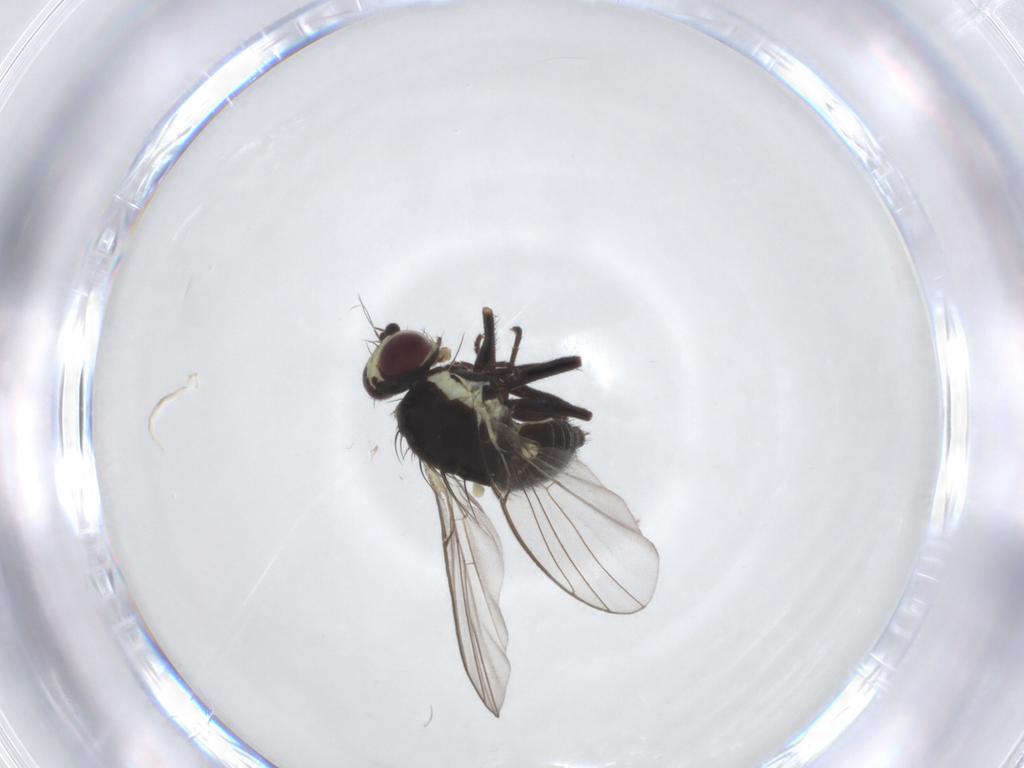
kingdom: Animalia
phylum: Arthropoda
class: Insecta
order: Diptera
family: Agromyzidae
